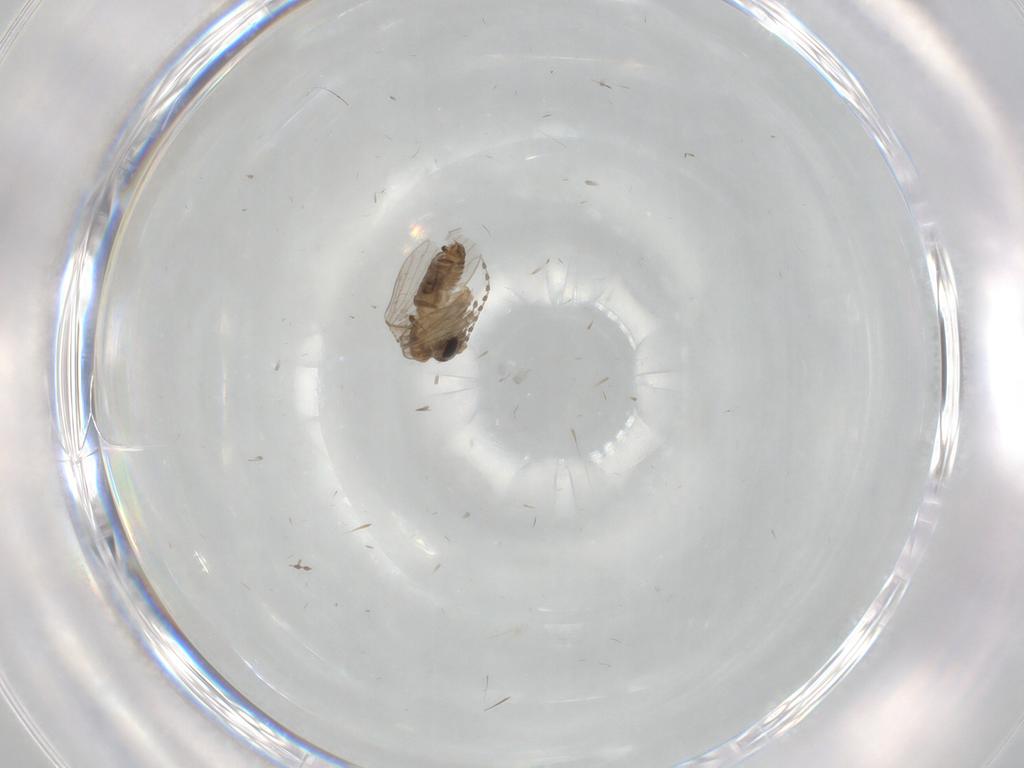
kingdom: Animalia
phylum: Arthropoda
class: Insecta
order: Diptera
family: Psychodidae
